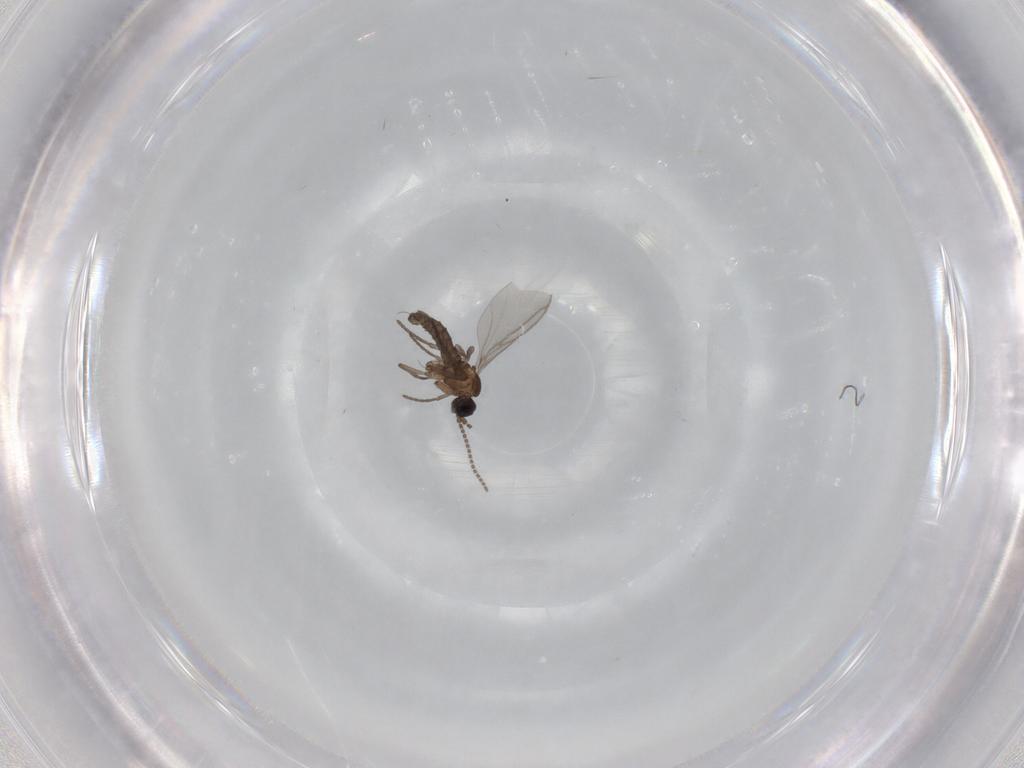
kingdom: Animalia
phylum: Arthropoda
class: Insecta
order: Diptera
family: Sciaridae
